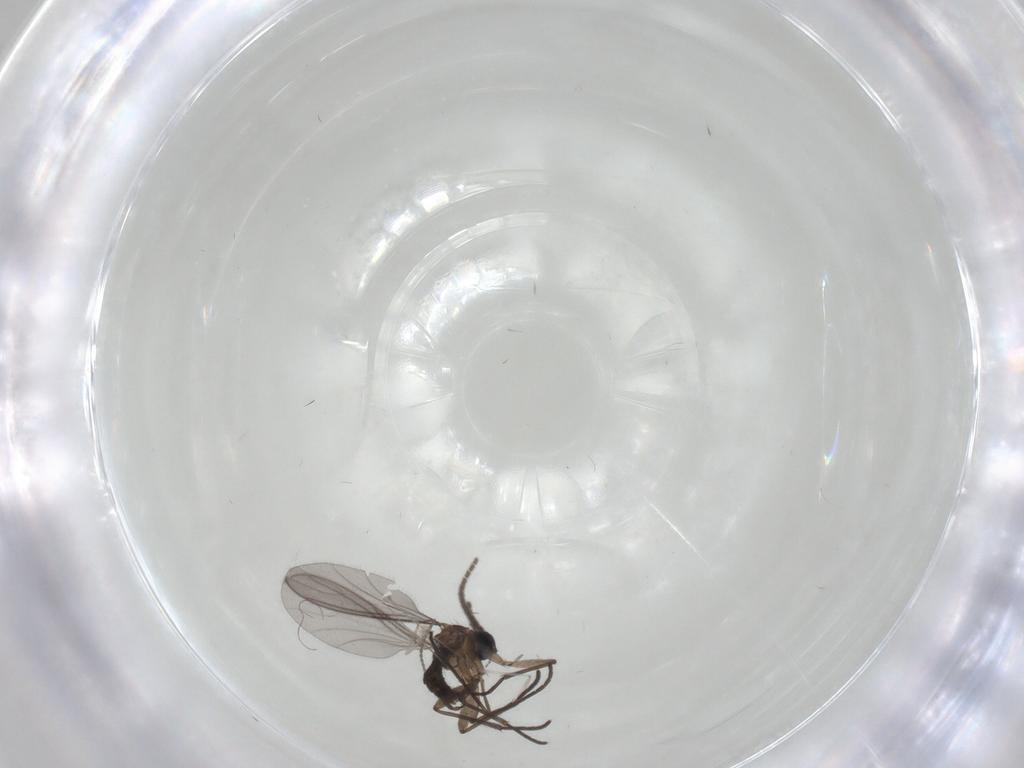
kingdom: Animalia
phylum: Arthropoda
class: Insecta
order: Diptera
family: Sciaridae
